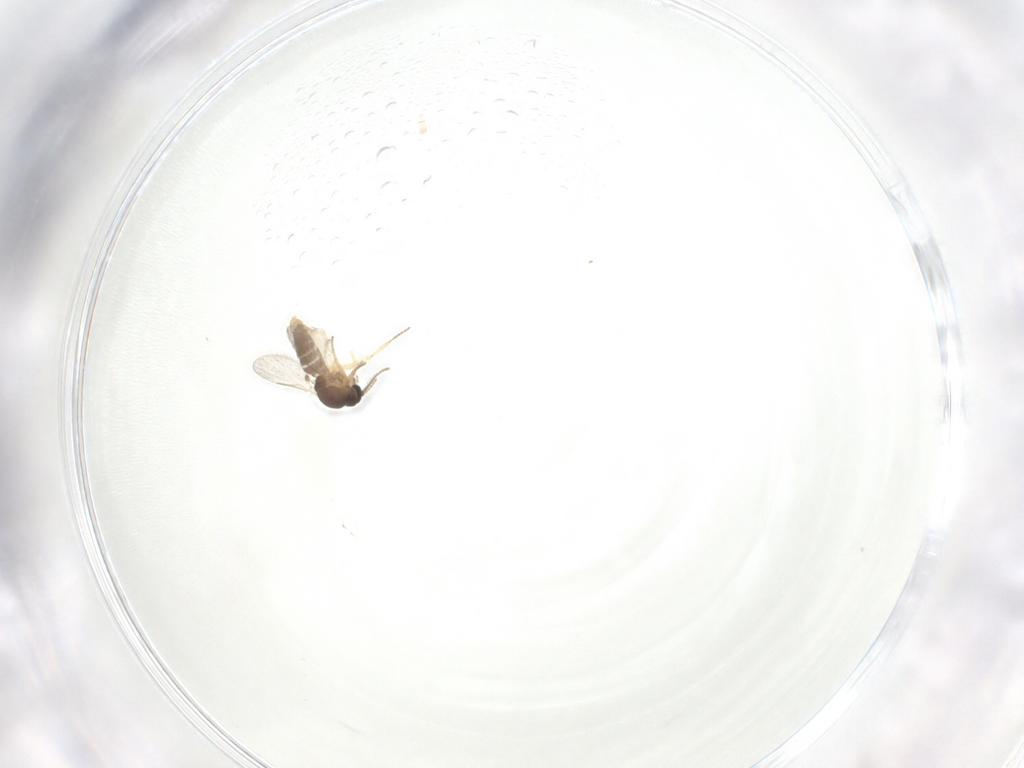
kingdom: Animalia
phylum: Arthropoda
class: Insecta
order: Diptera
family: Ceratopogonidae
